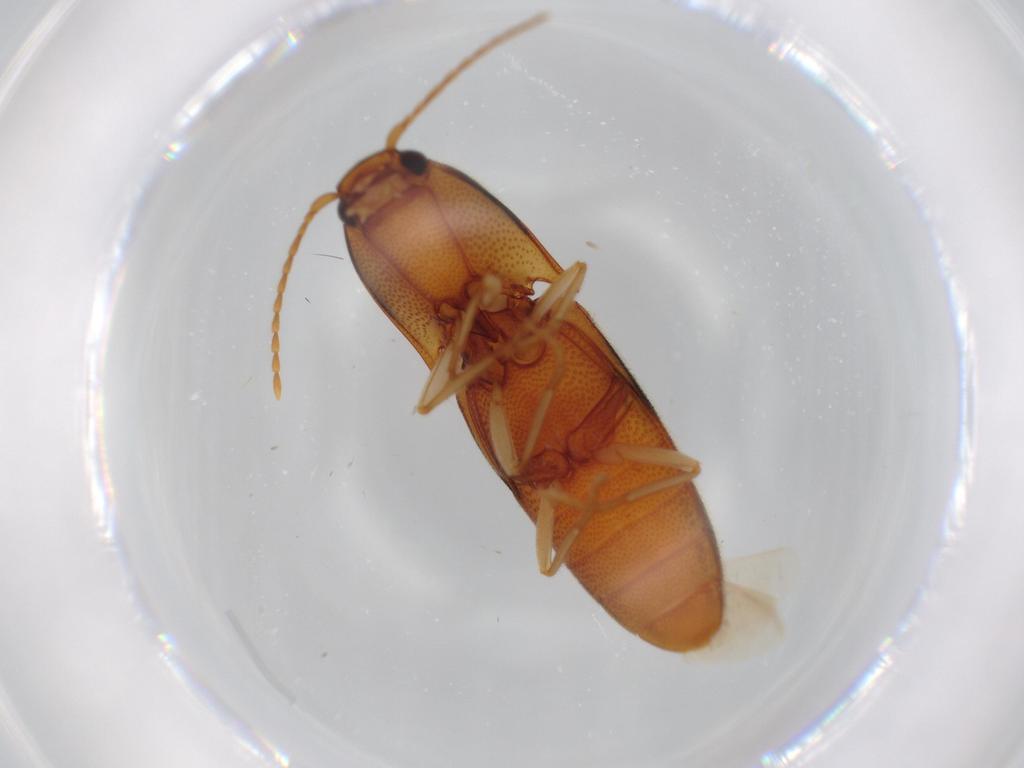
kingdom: Animalia
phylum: Arthropoda
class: Insecta
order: Coleoptera
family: Elateridae
